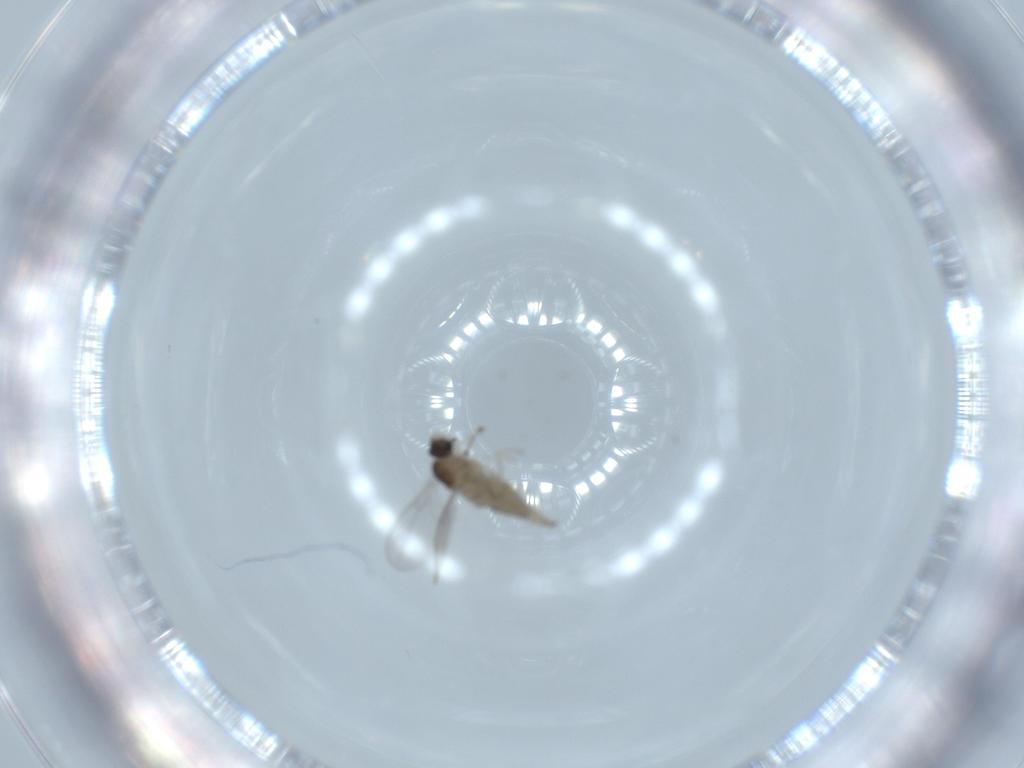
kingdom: Animalia
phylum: Arthropoda
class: Insecta
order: Diptera
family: Cecidomyiidae
